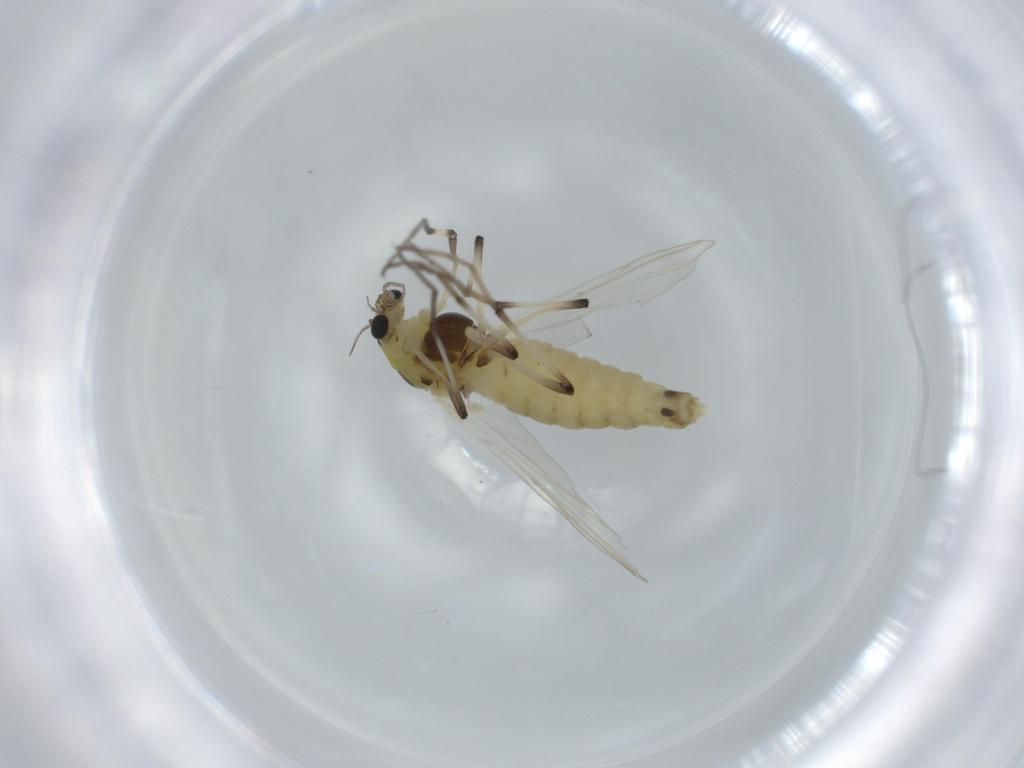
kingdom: Animalia
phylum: Arthropoda
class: Insecta
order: Diptera
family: Chironomidae
